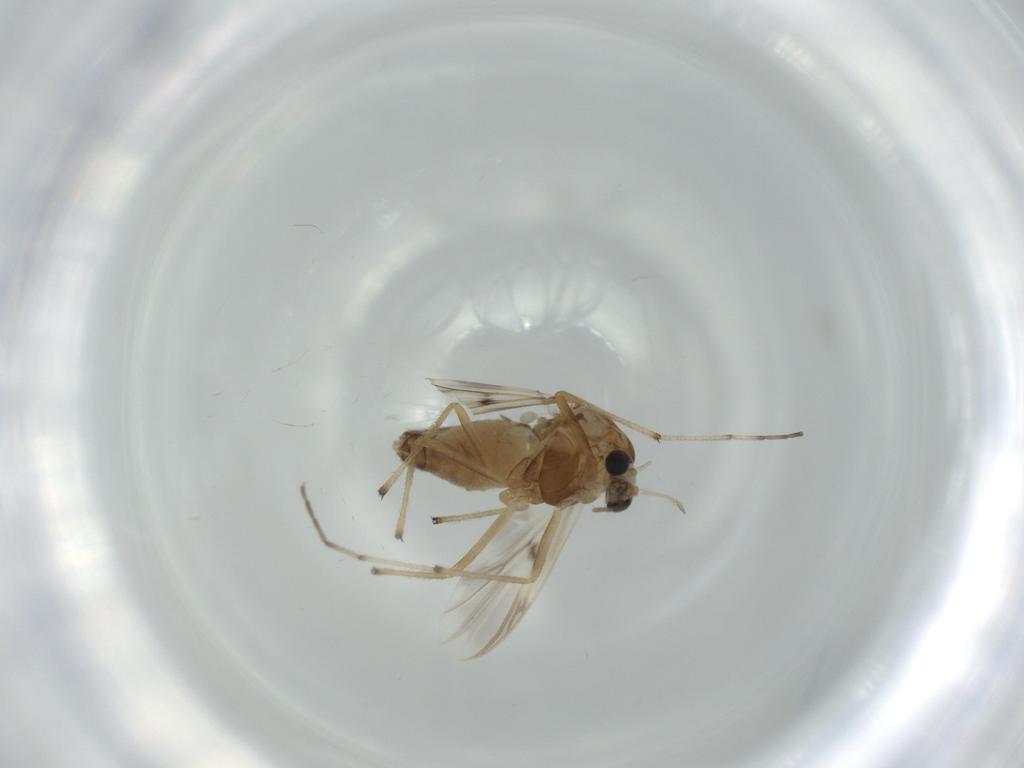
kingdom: Animalia
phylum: Arthropoda
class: Insecta
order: Diptera
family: Chironomidae
